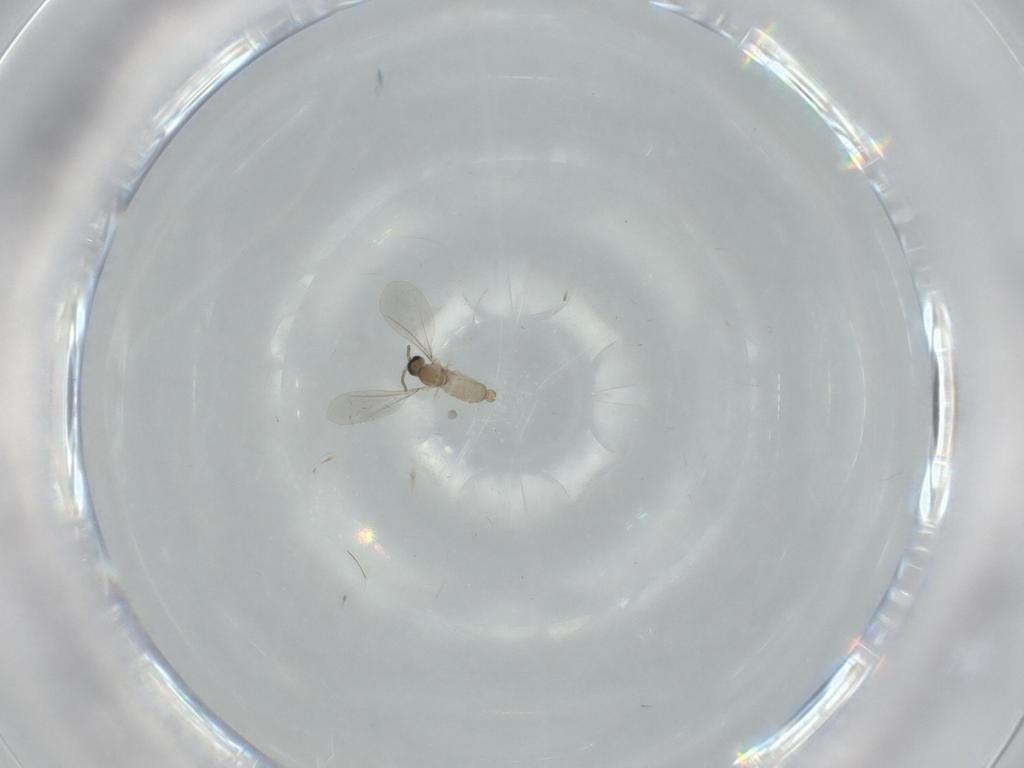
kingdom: Animalia
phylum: Arthropoda
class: Insecta
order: Diptera
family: Cecidomyiidae
